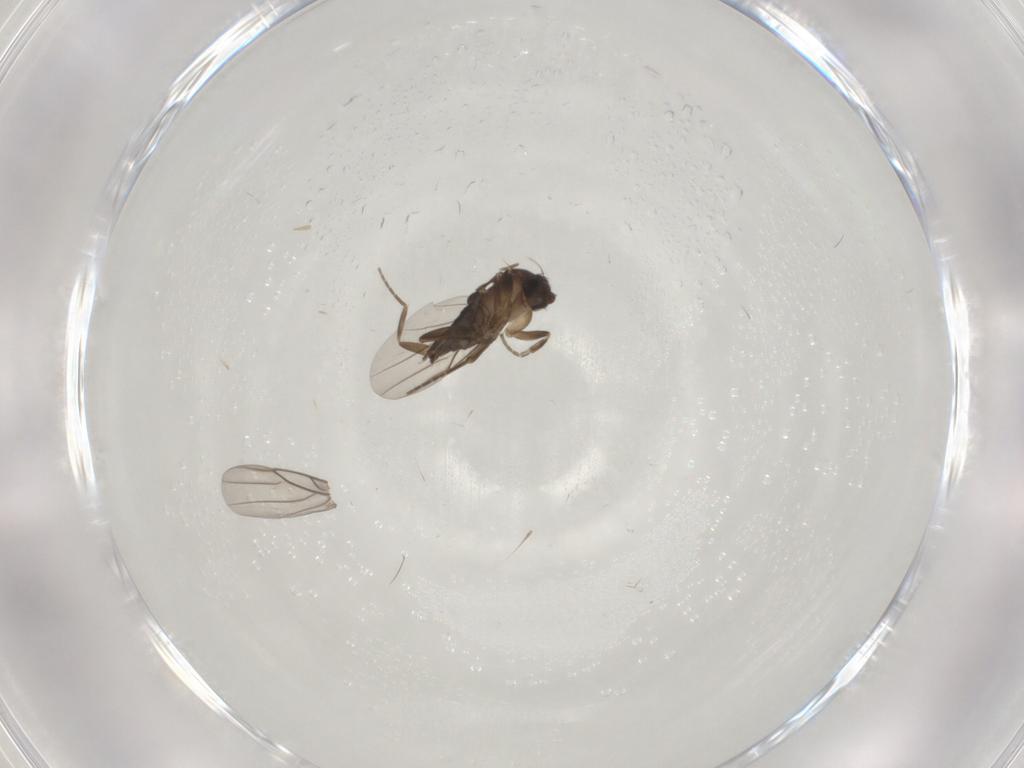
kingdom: Animalia
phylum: Arthropoda
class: Insecta
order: Diptera
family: Phoridae
